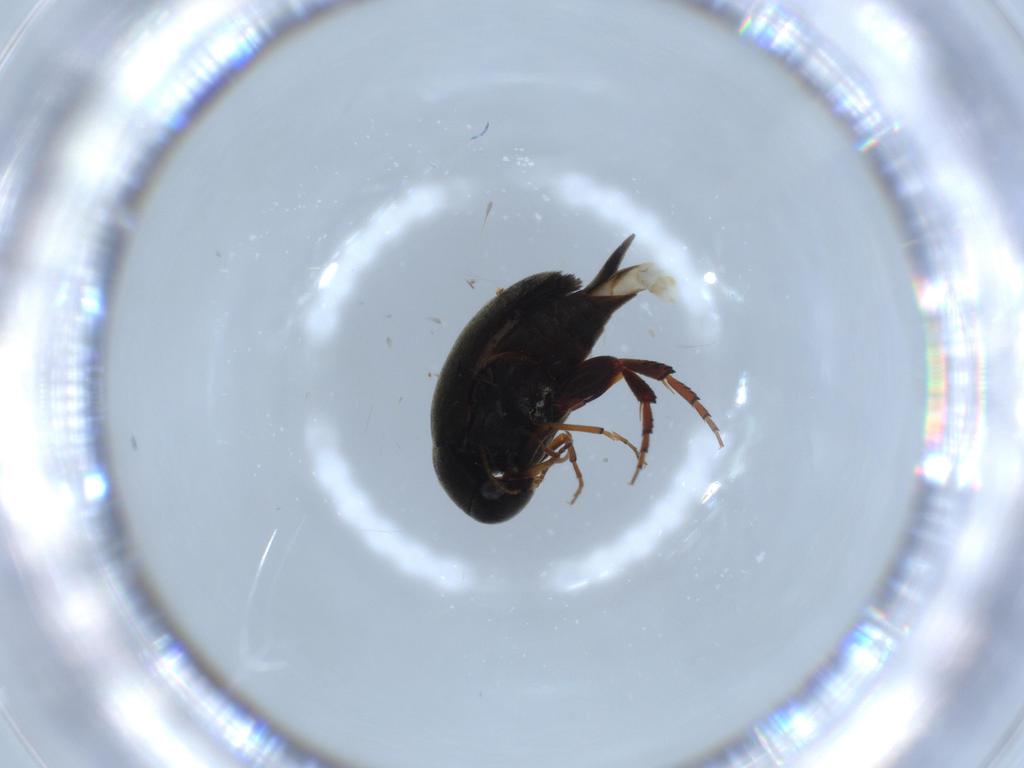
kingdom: Animalia
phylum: Arthropoda
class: Insecta
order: Coleoptera
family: Mordellidae
